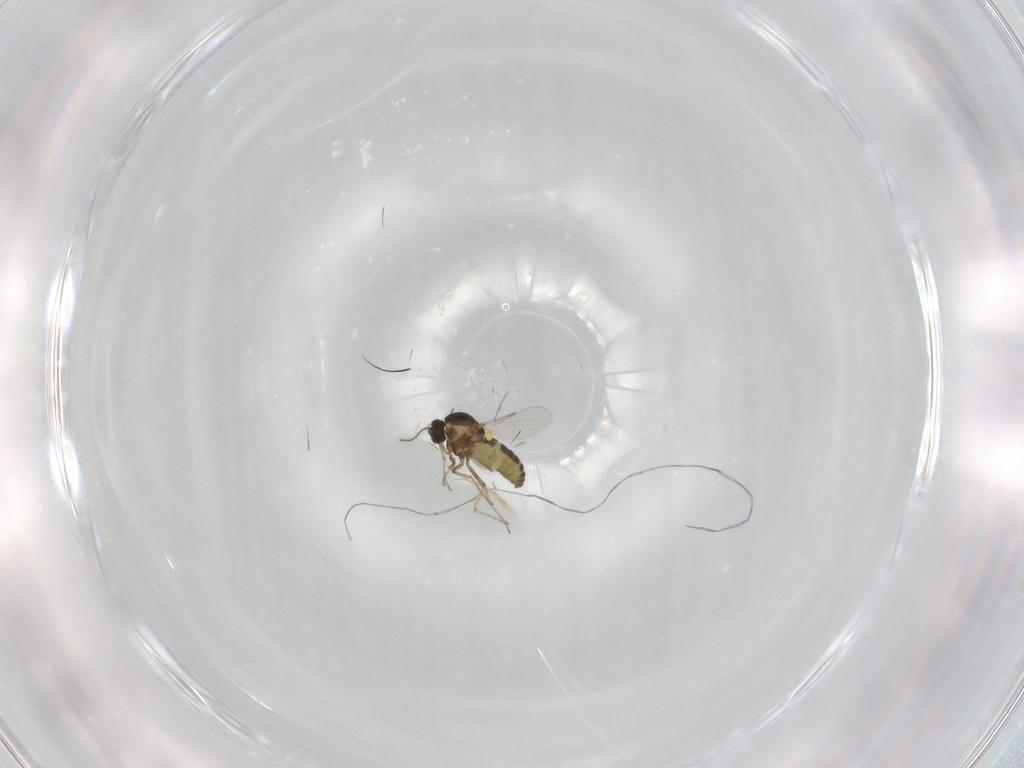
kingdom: Animalia
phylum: Arthropoda
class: Insecta
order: Diptera
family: Ceratopogonidae
